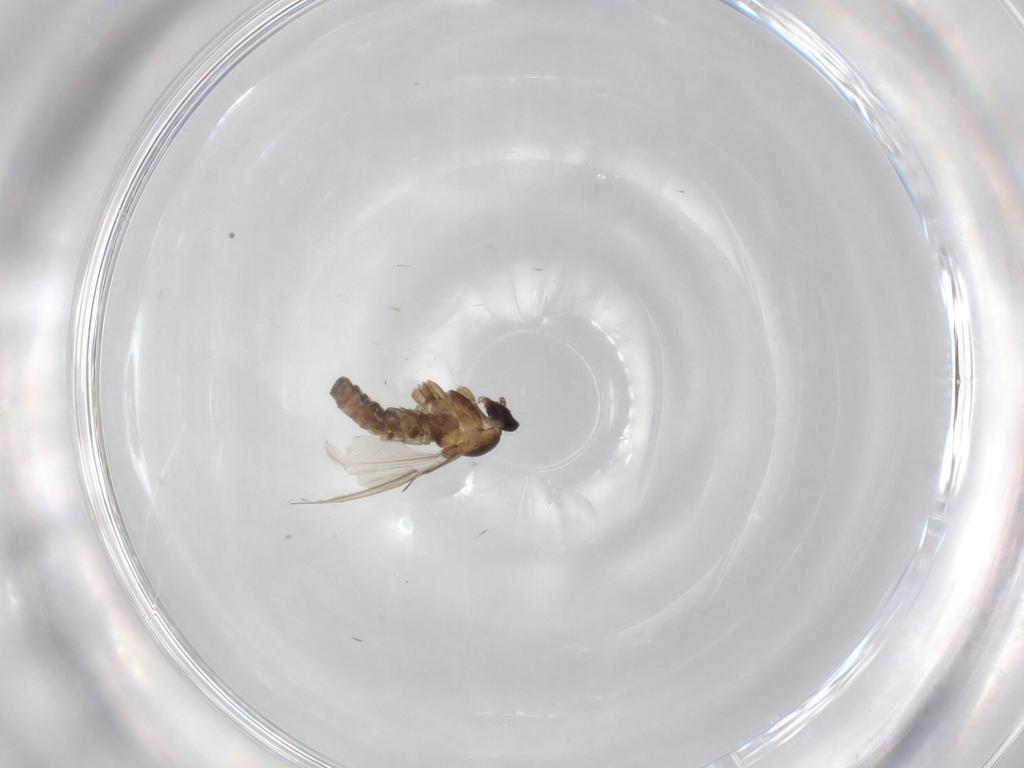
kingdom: Animalia
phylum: Arthropoda
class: Insecta
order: Diptera
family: Cecidomyiidae
